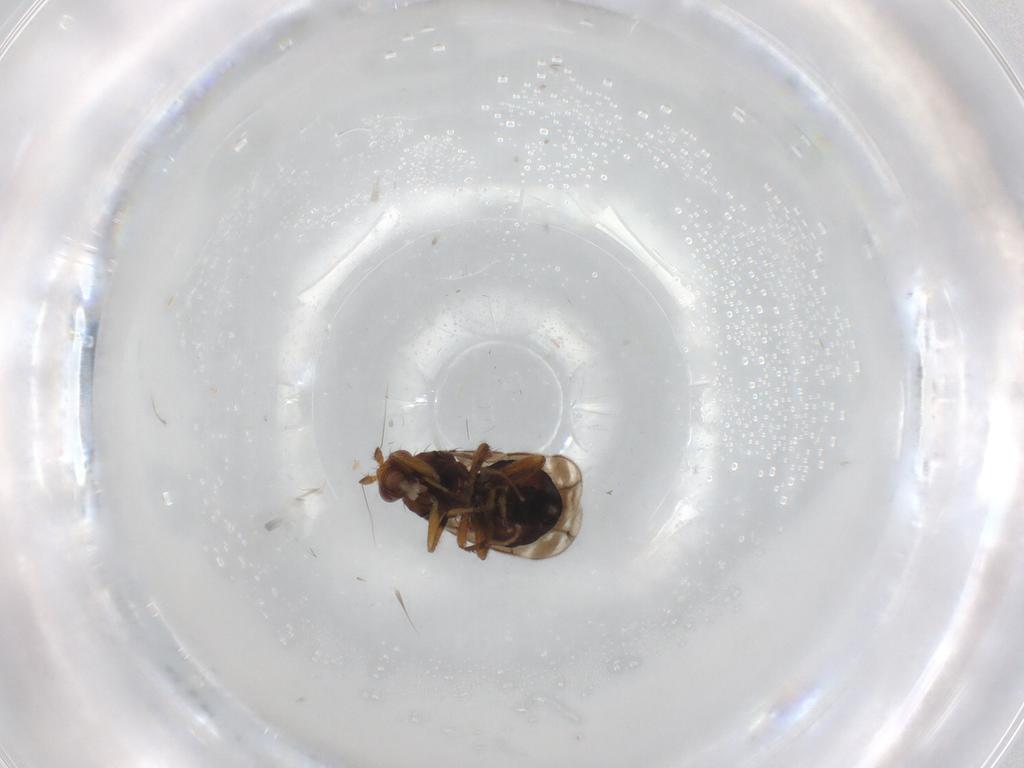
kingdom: Animalia
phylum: Arthropoda
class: Insecta
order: Diptera
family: Sphaeroceridae
